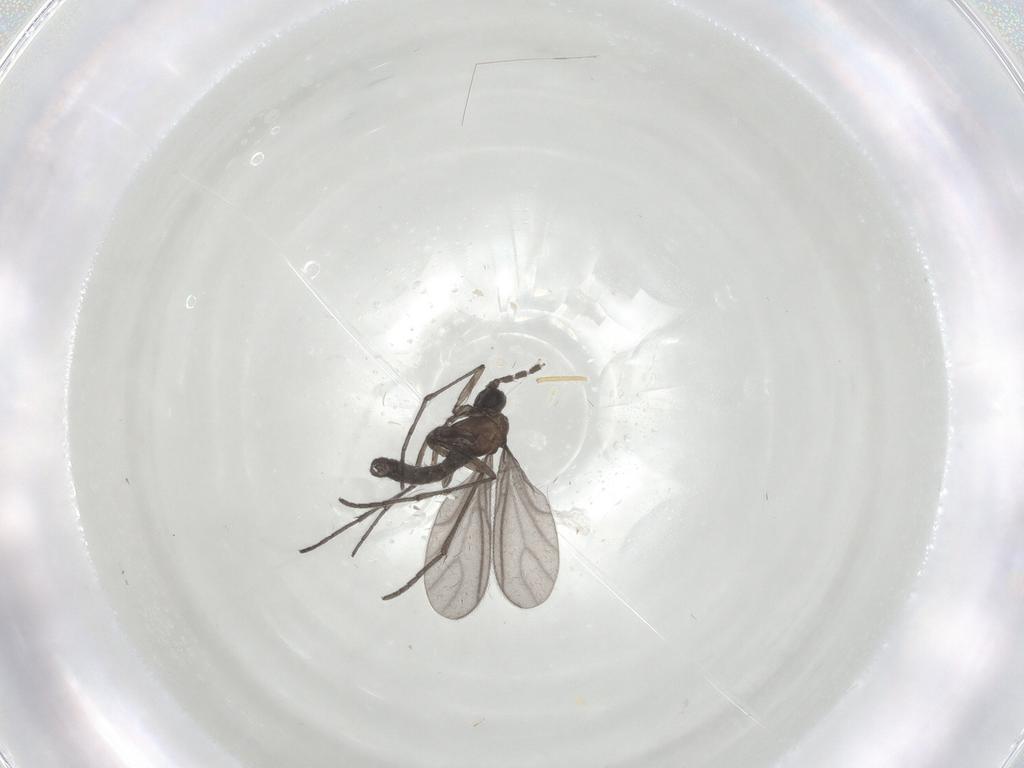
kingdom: Animalia
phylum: Arthropoda
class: Insecta
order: Diptera
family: Sciaridae
